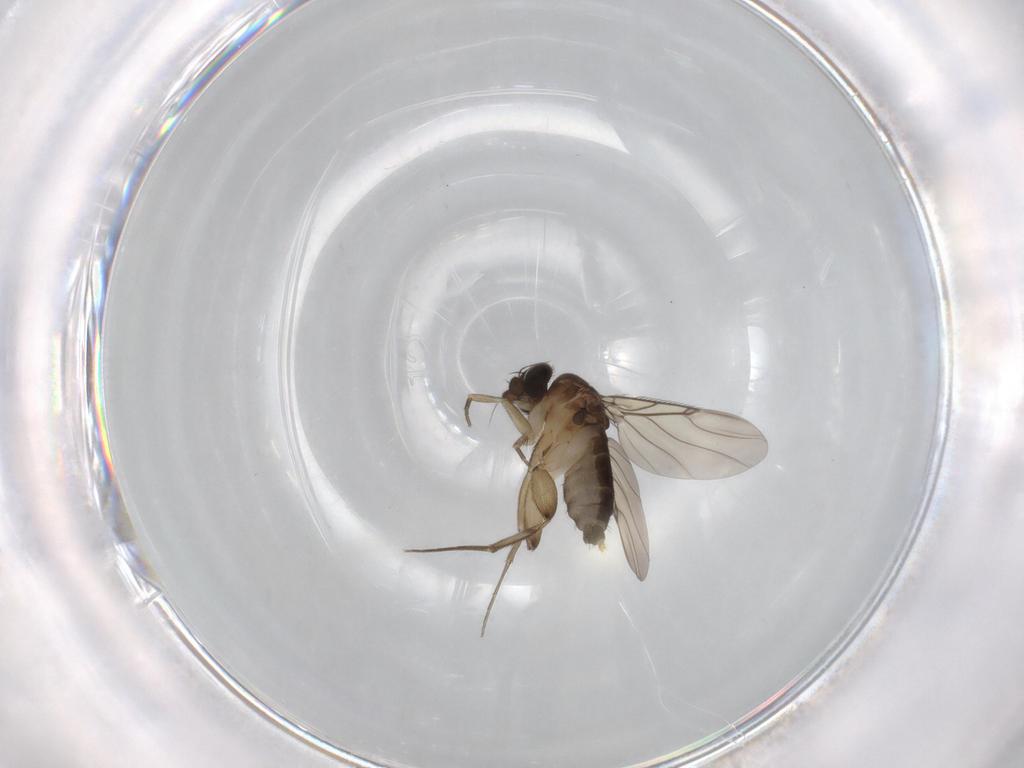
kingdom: Animalia
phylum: Arthropoda
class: Insecta
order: Diptera
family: Phoridae
